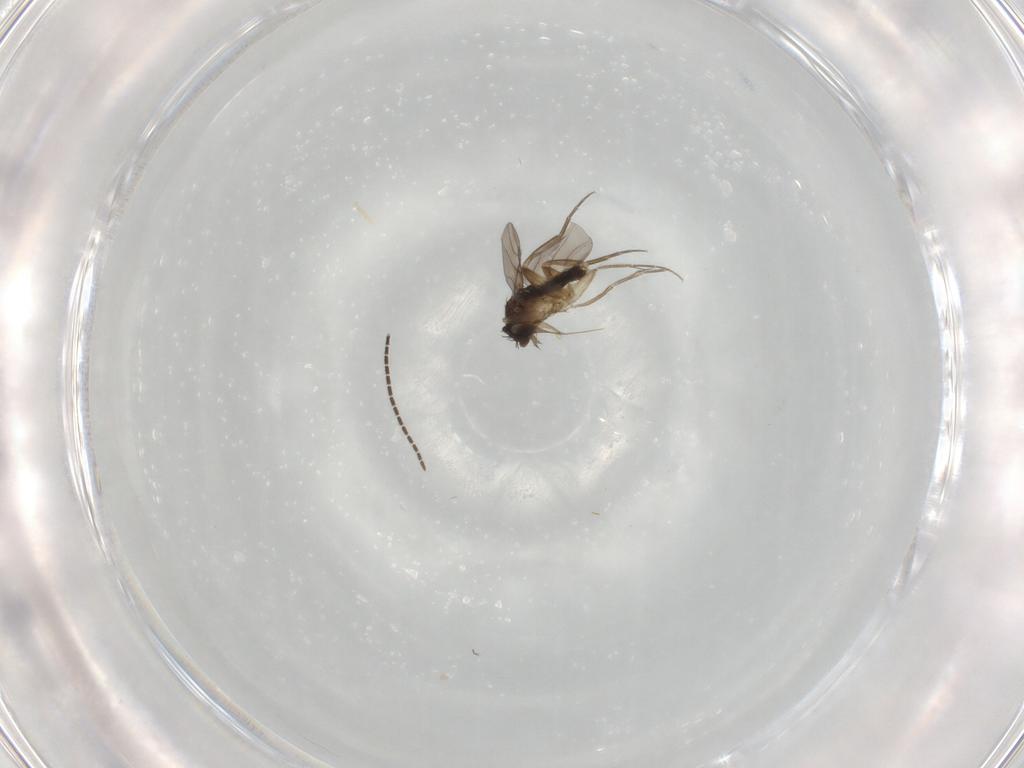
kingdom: Animalia
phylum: Arthropoda
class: Insecta
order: Diptera
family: Phoridae
